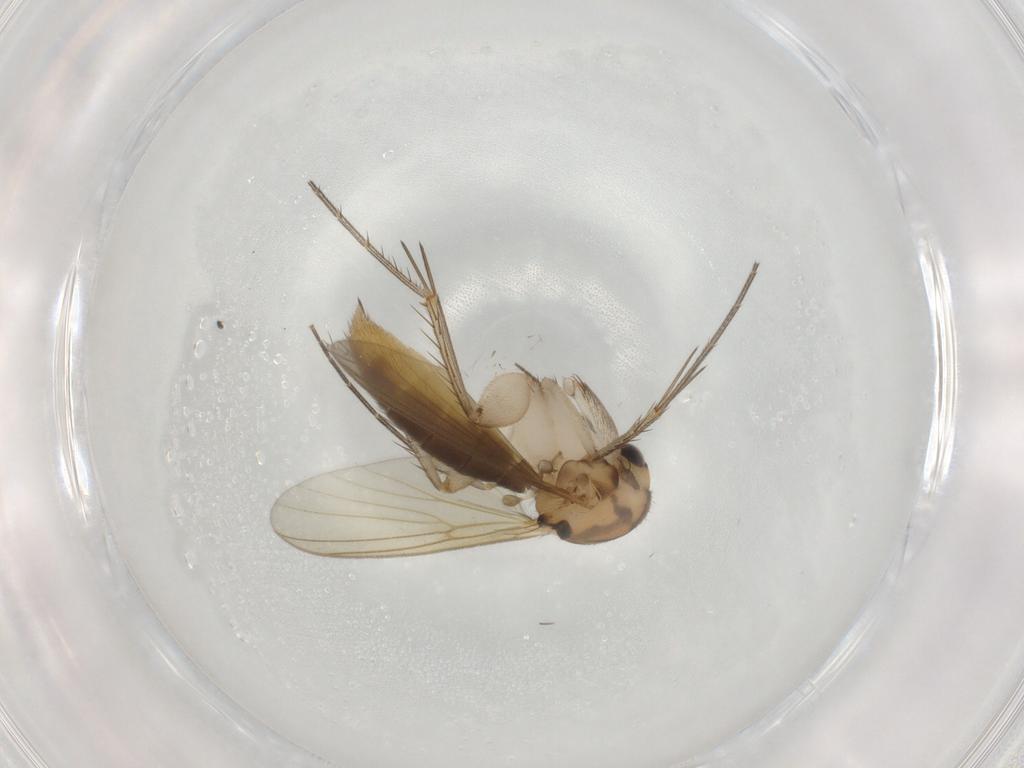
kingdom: Animalia
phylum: Arthropoda
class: Insecta
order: Diptera
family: Mycetophilidae
